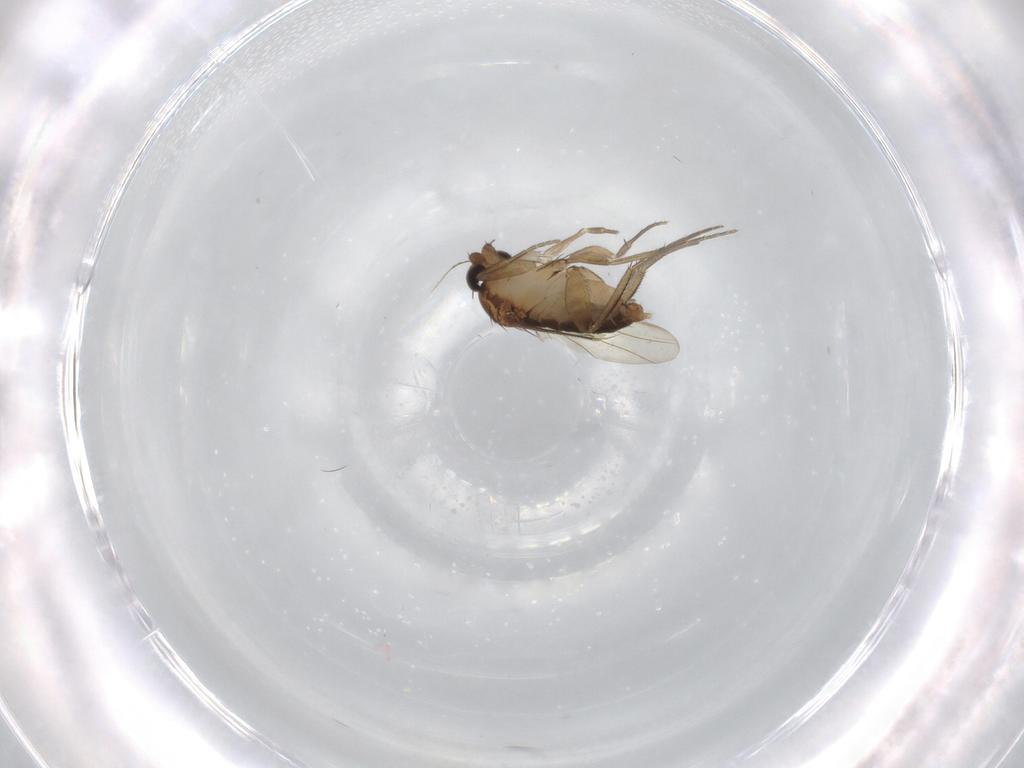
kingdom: Animalia
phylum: Arthropoda
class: Insecta
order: Diptera
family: Phoridae
